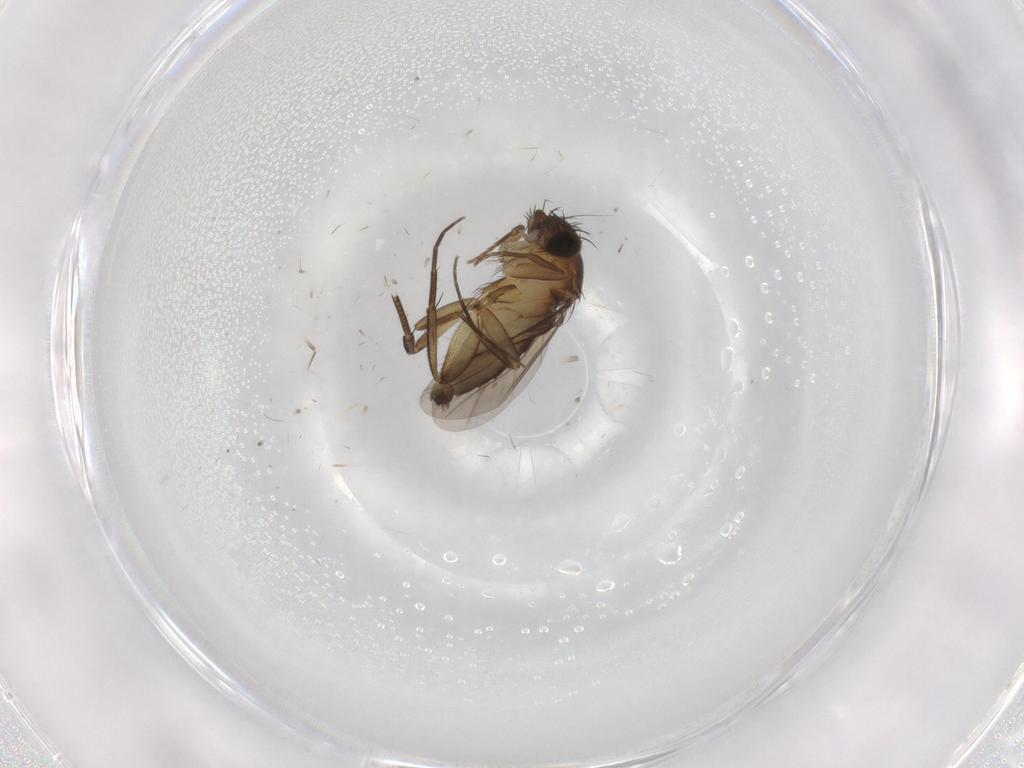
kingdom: Animalia
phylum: Arthropoda
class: Insecta
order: Diptera
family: Phoridae
